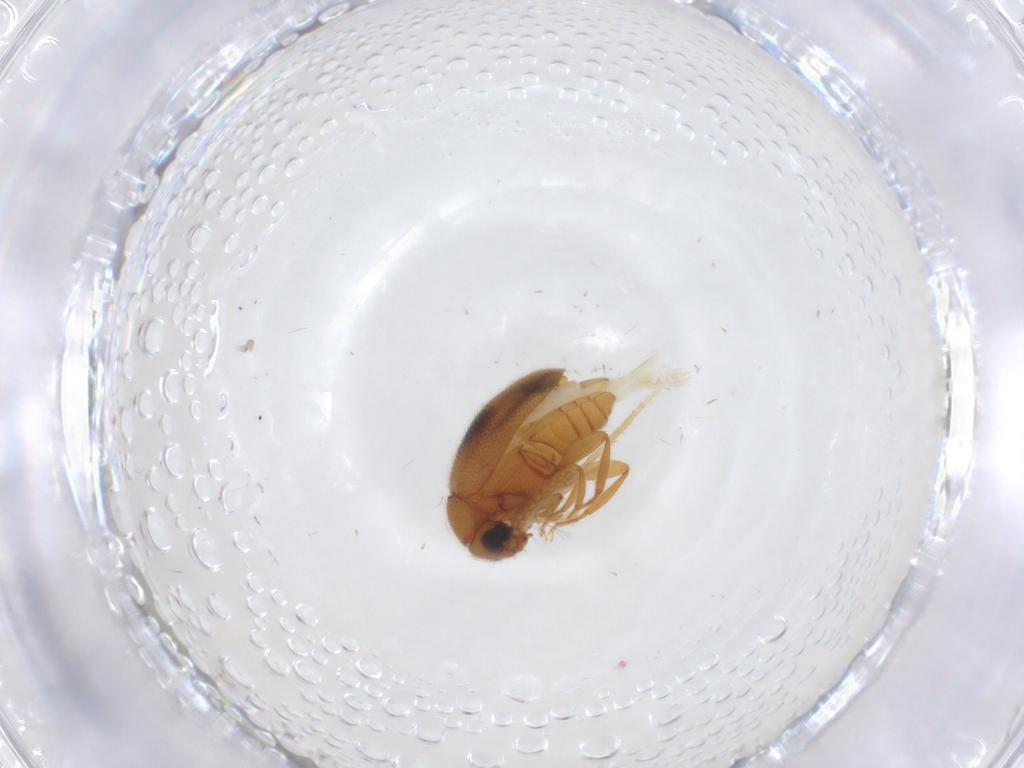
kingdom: Animalia
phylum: Arthropoda
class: Insecta
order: Coleoptera
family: Aderidae
